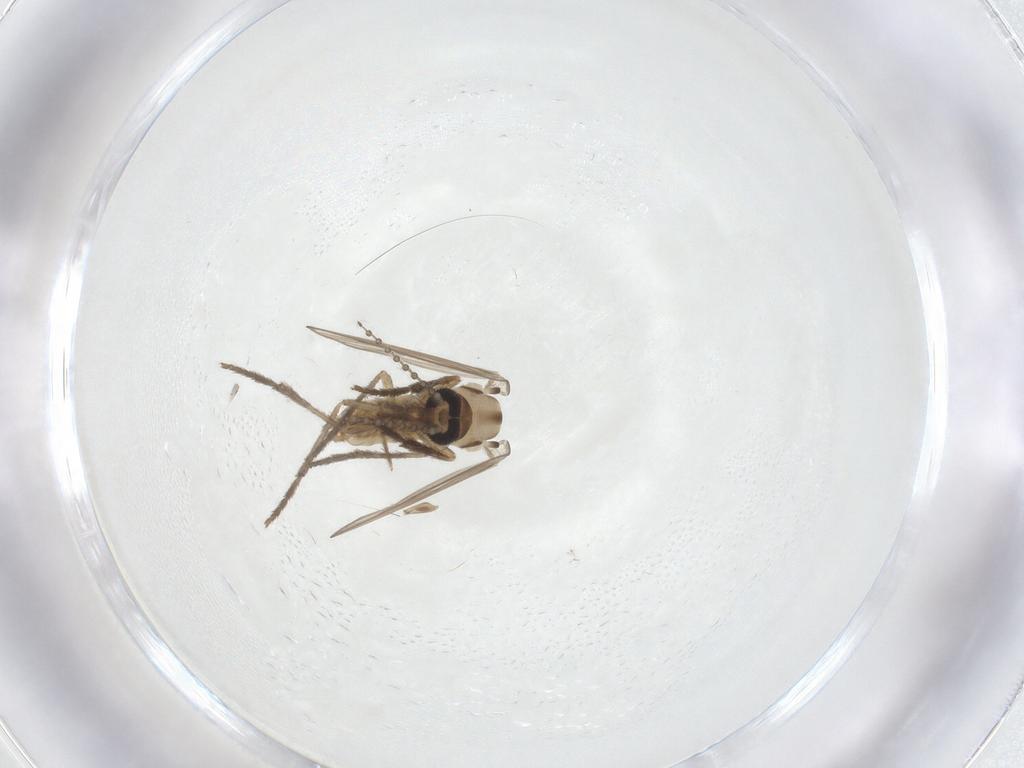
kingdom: Animalia
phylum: Arthropoda
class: Insecta
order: Diptera
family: Psychodidae
